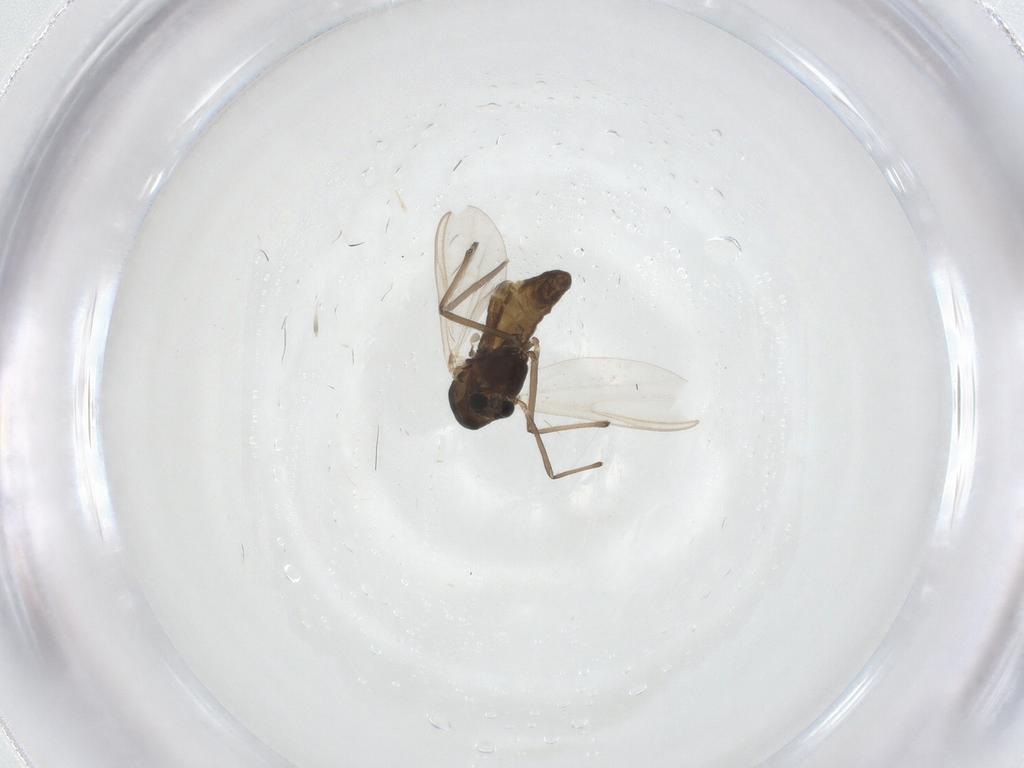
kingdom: Animalia
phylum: Arthropoda
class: Insecta
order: Diptera
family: Chironomidae
